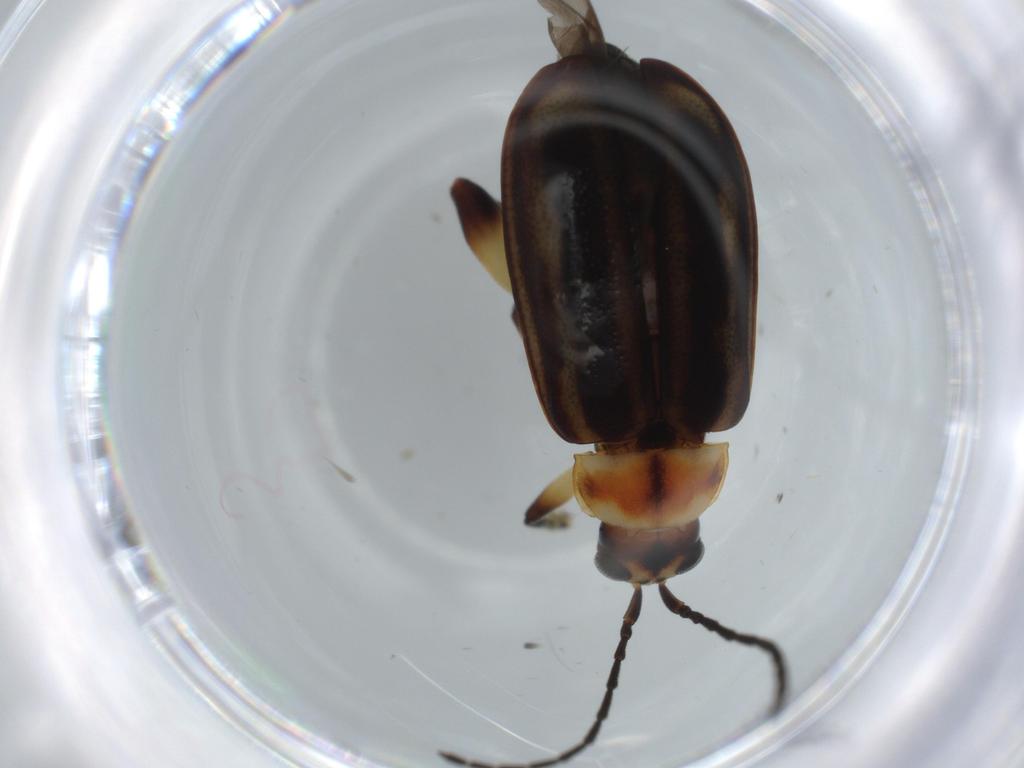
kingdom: Animalia
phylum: Arthropoda
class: Insecta
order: Coleoptera
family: Chrysomelidae
